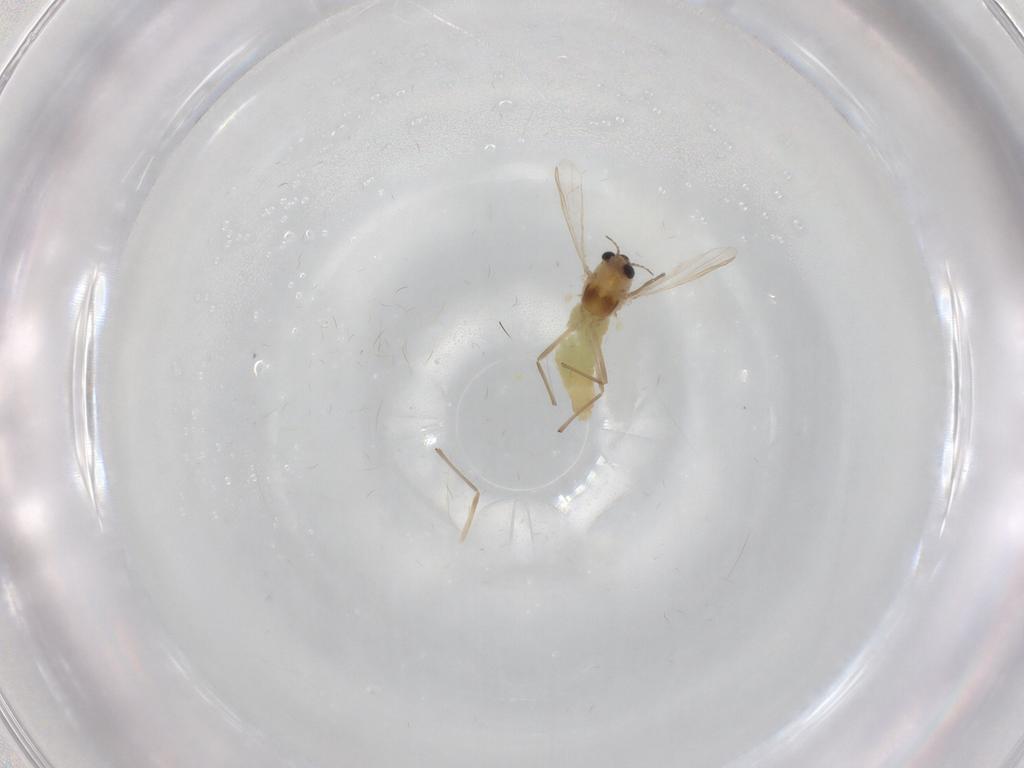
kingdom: Animalia
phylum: Arthropoda
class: Insecta
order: Diptera
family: Chironomidae
